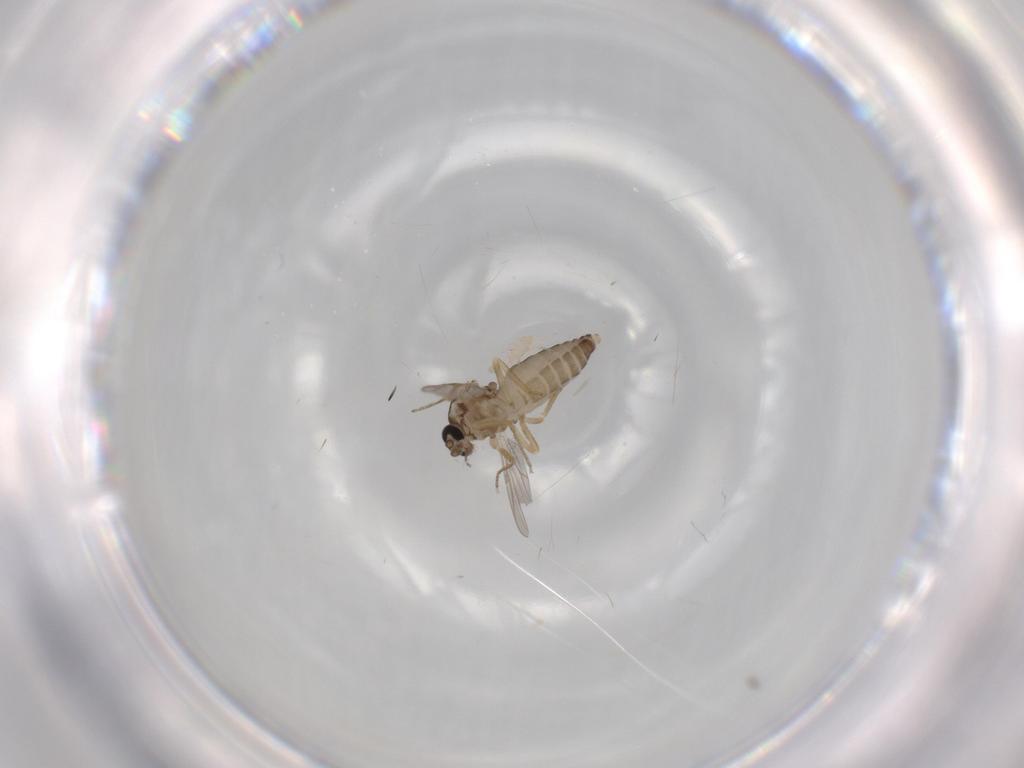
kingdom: Animalia
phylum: Arthropoda
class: Insecta
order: Diptera
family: Ceratopogonidae
